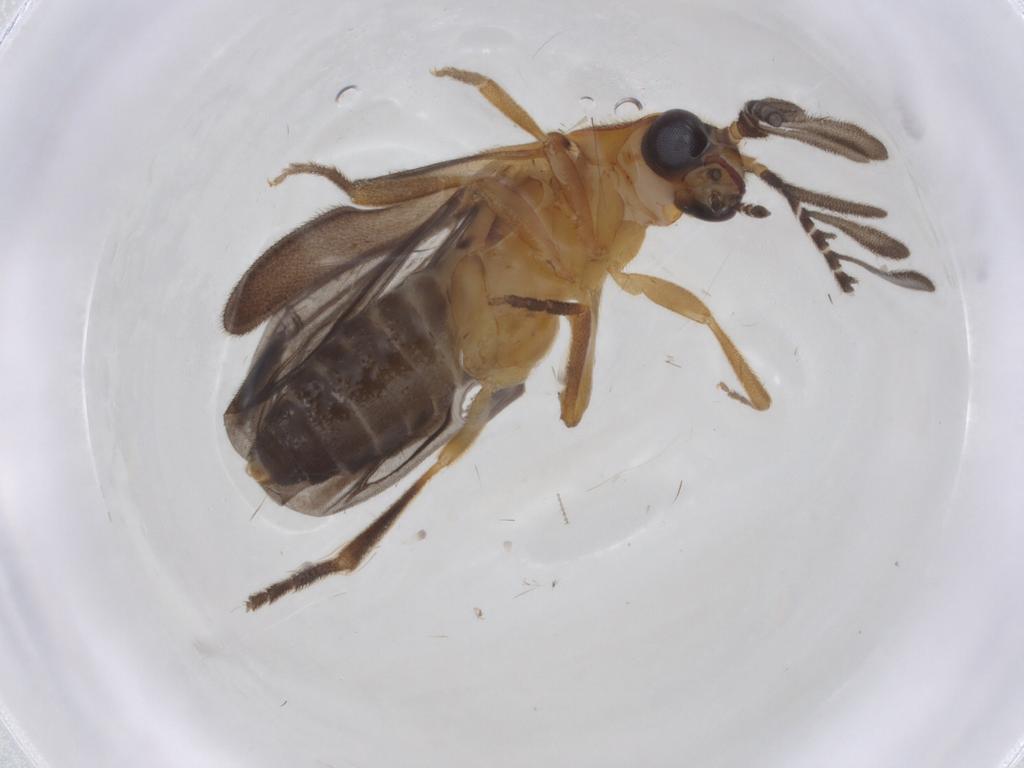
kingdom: Animalia
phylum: Arthropoda
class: Insecta
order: Coleoptera
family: Lampyridae
